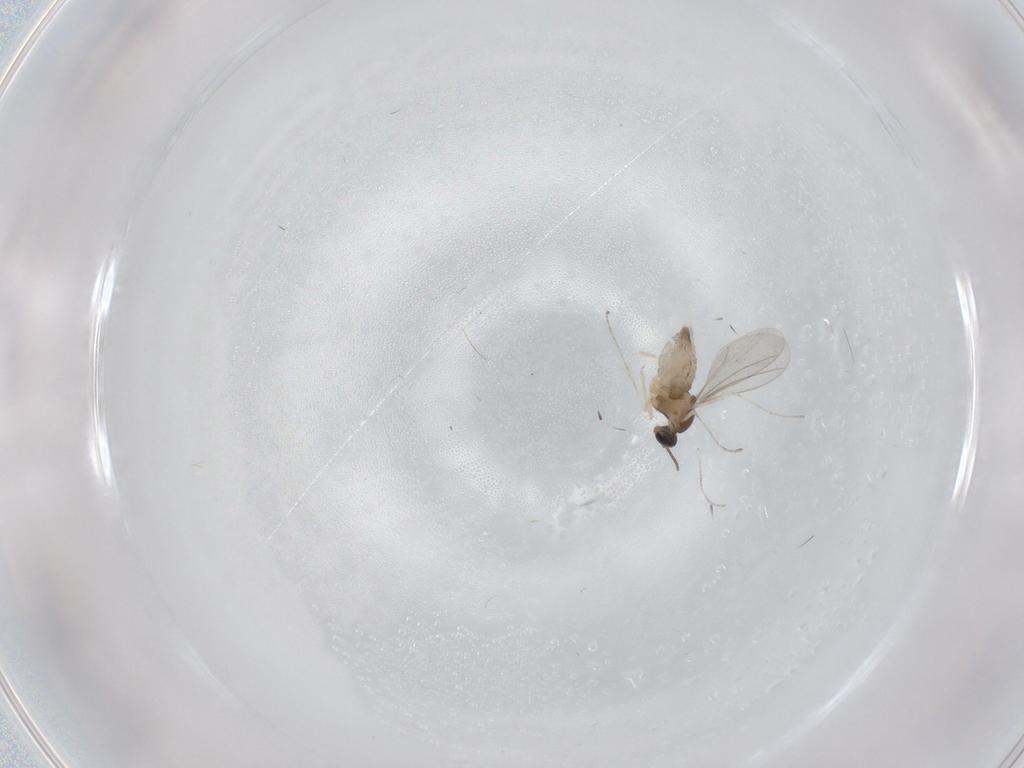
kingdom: Animalia
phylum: Arthropoda
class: Insecta
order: Diptera
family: Cecidomyiidae
